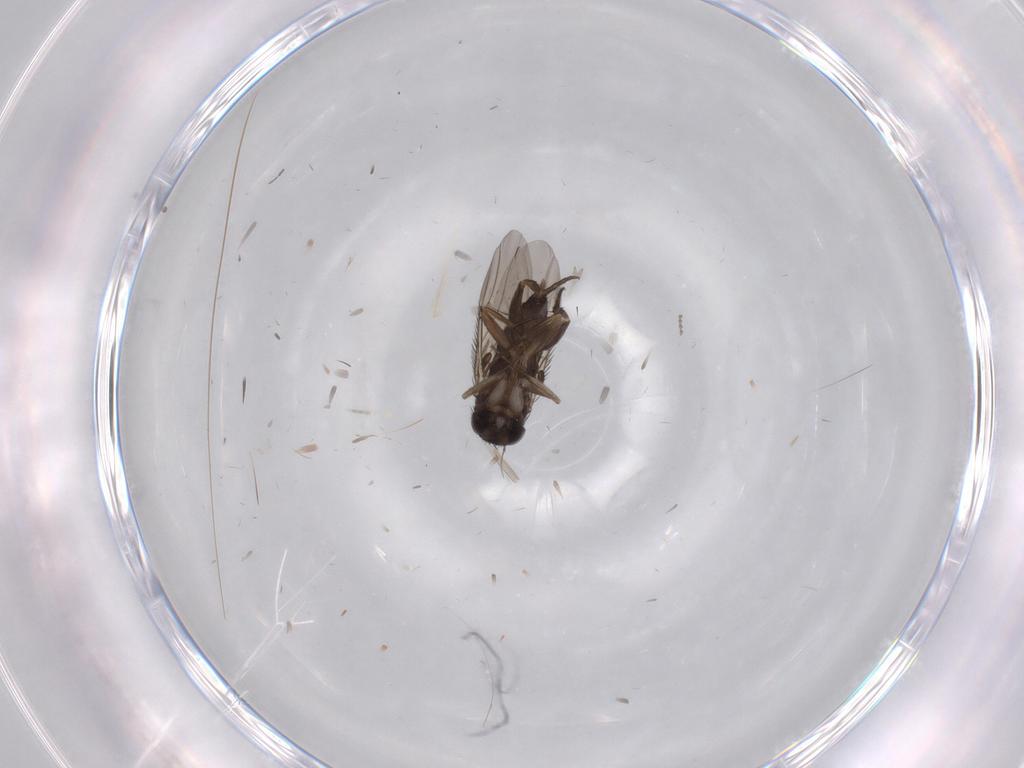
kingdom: Animalia
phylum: Arthropoda
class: Insecta
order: Diptera
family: Phoridae
